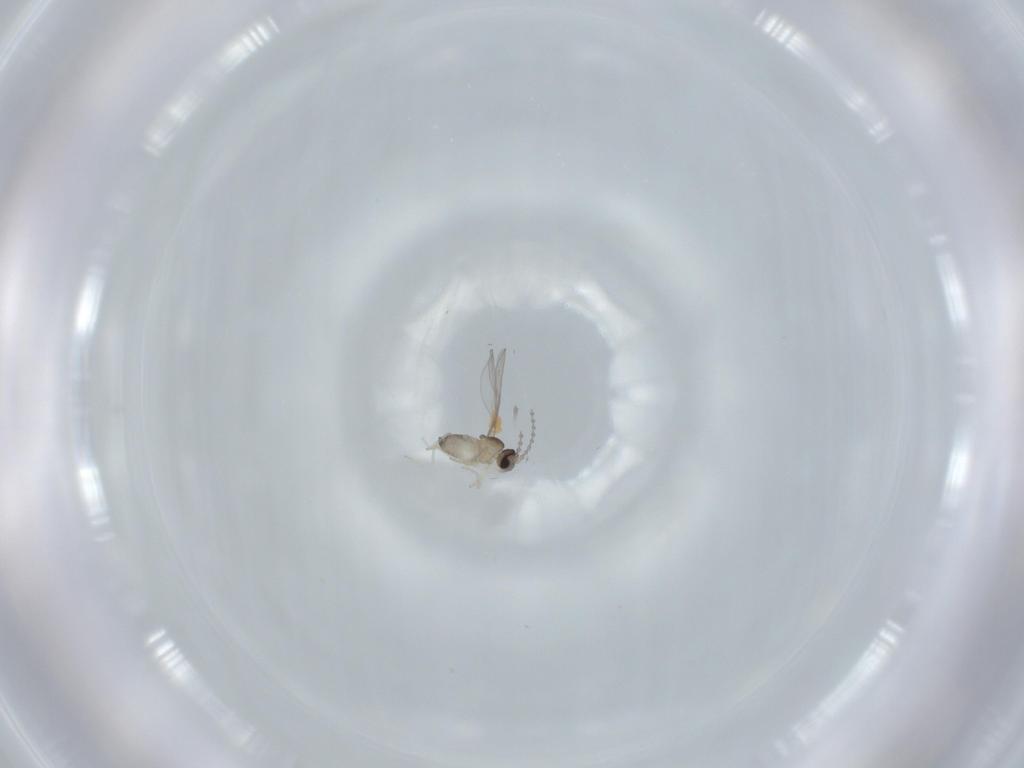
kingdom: Animalia
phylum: Arthropoda
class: Insecta
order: Diptera
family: Cecidomyiidae
